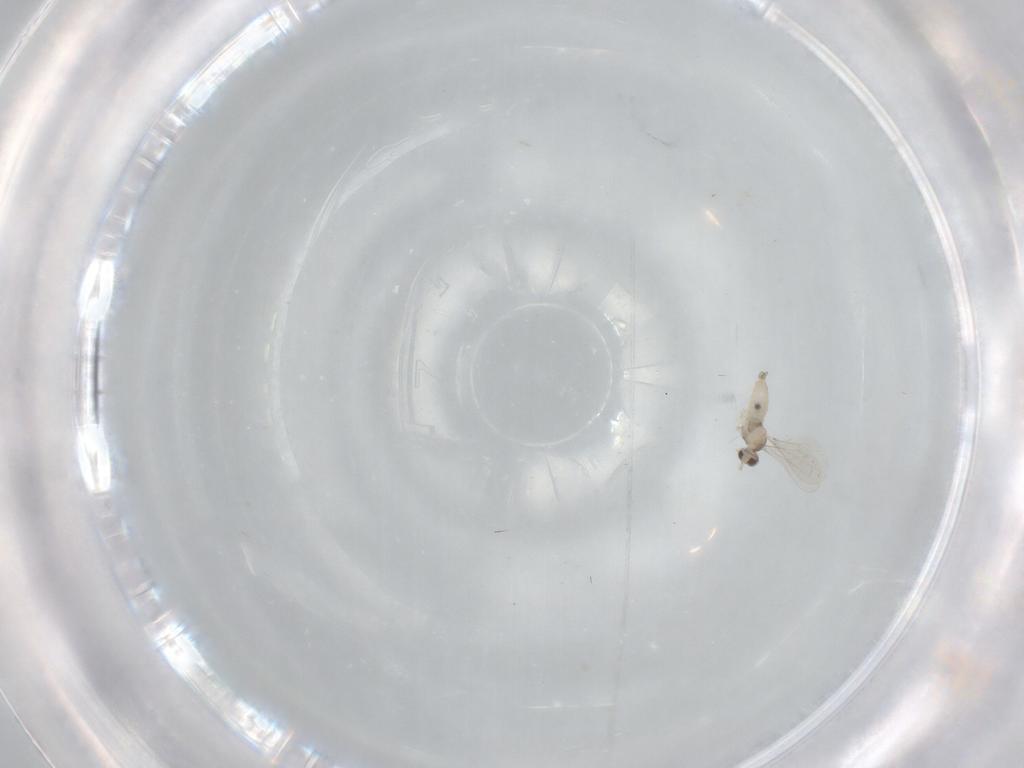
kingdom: Animalia
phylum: Arthropoda
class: Insecta
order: Diptera
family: Cecidomyiidae
